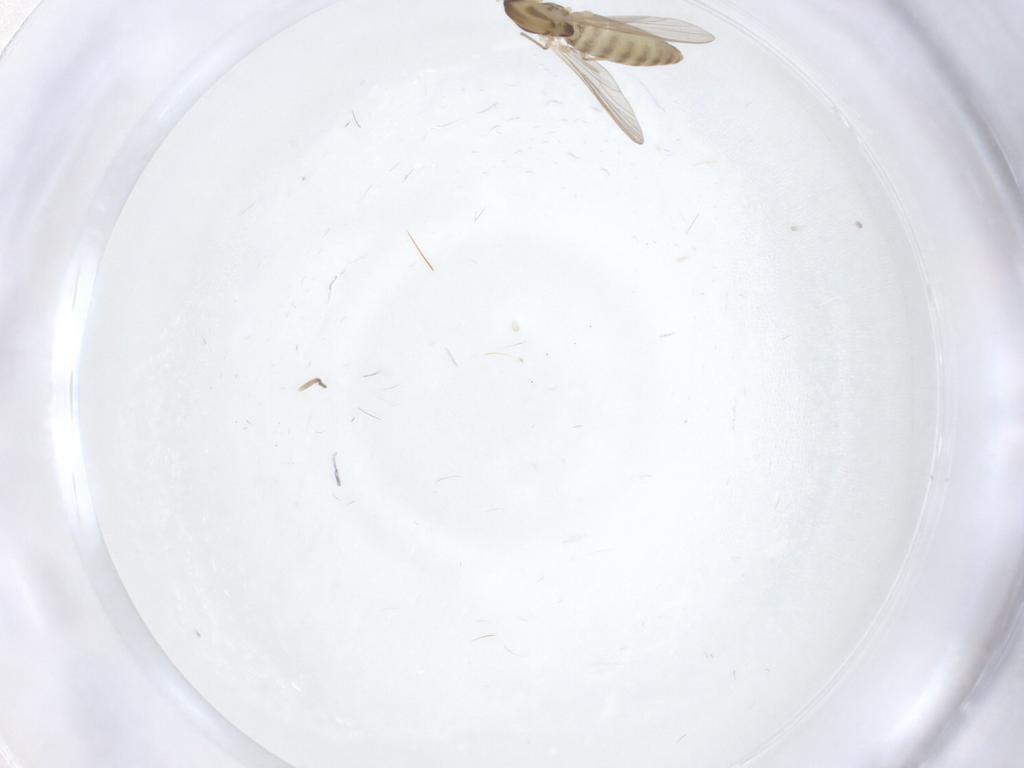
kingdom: Animalia
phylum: Arthropoda
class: Insecta
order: Diptera
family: Chironomidae
